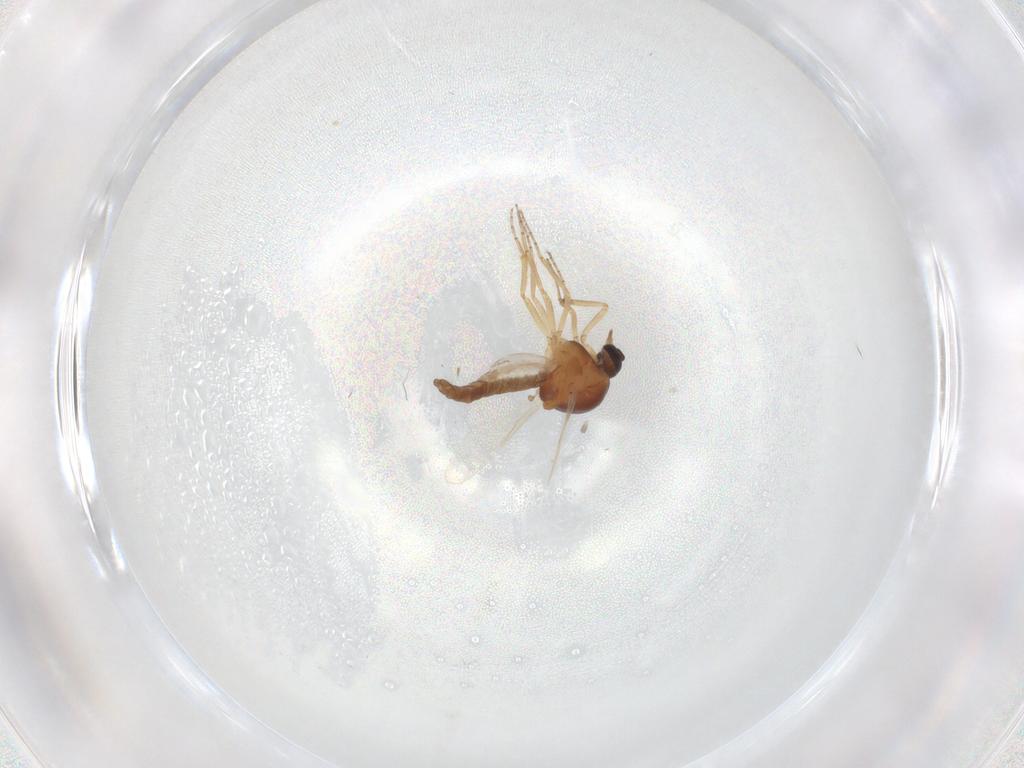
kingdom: Animalia
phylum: Arthropoda
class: Insecta
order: Diptera
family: Ceratopogonidae
